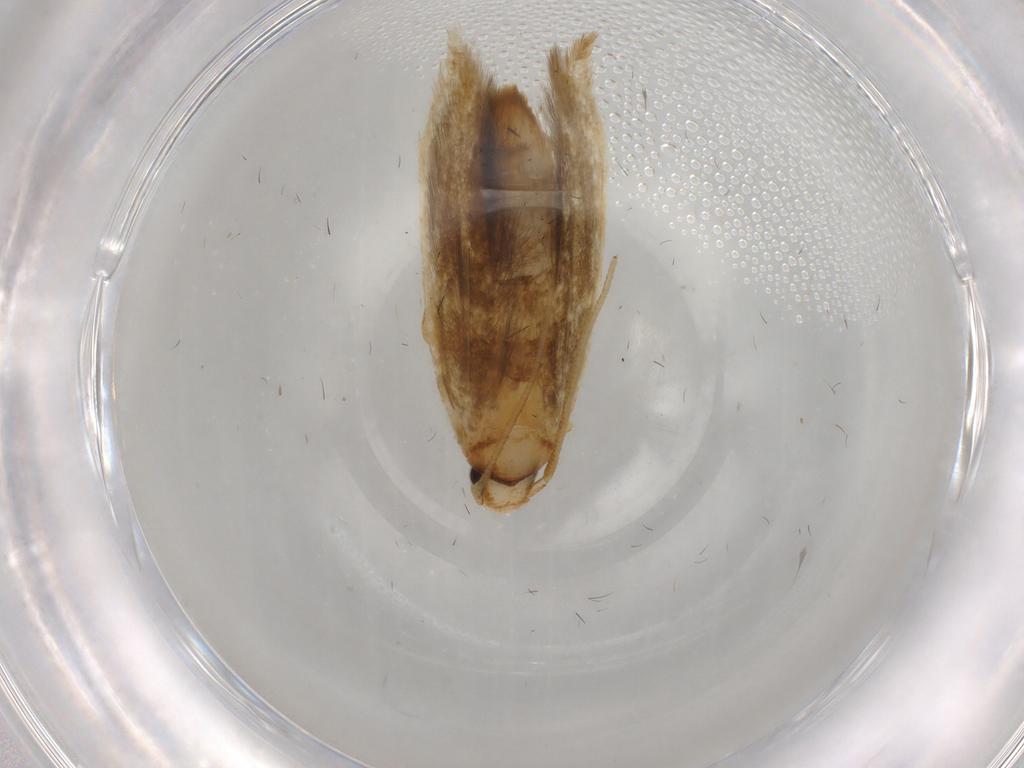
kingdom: Animalia
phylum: Arthropoda
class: Insecta
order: Lepidoptera
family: Tineidae
